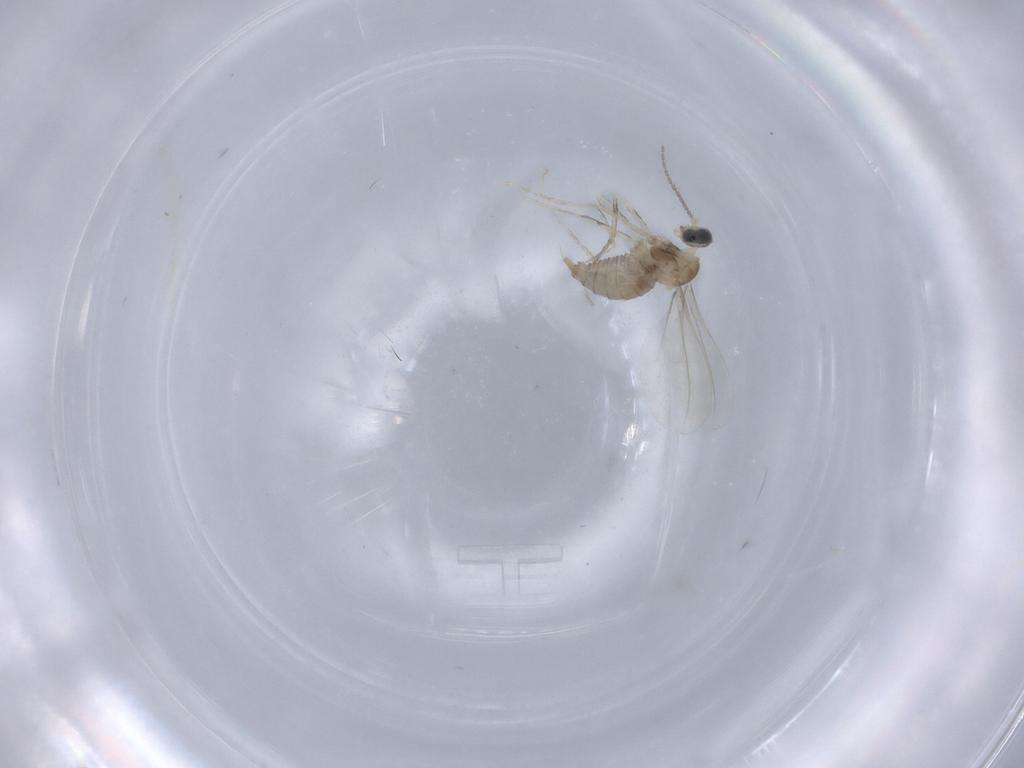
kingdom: Animalia
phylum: Arthropoda
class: Insecta
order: Diptera
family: Cecidomyiidae
